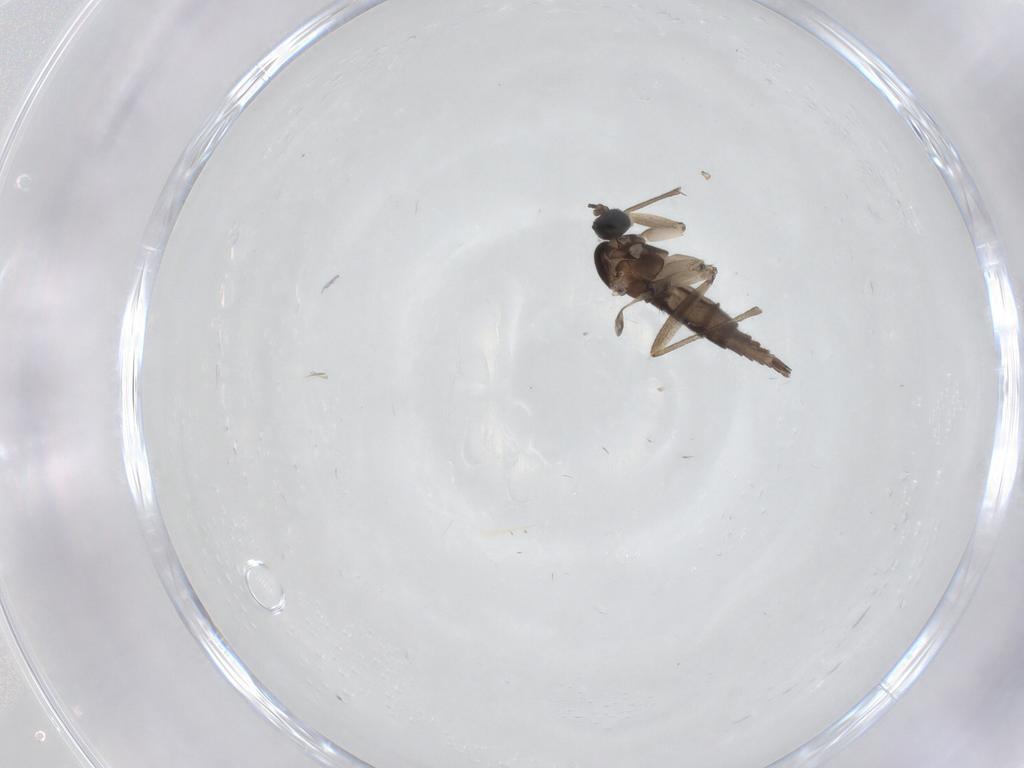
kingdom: Animalia
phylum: Arthropoda
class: Insecta
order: Diptera
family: Sciaridae
